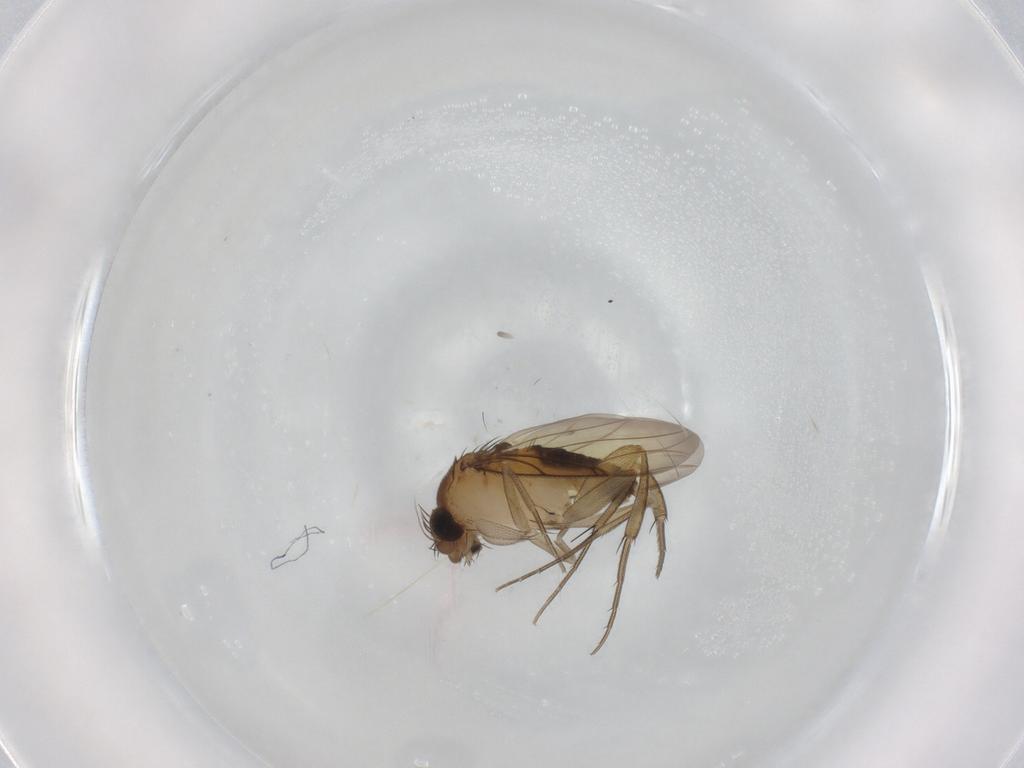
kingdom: Animalia
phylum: Arthropoda
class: Insecta
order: Diptera
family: Phoridae
